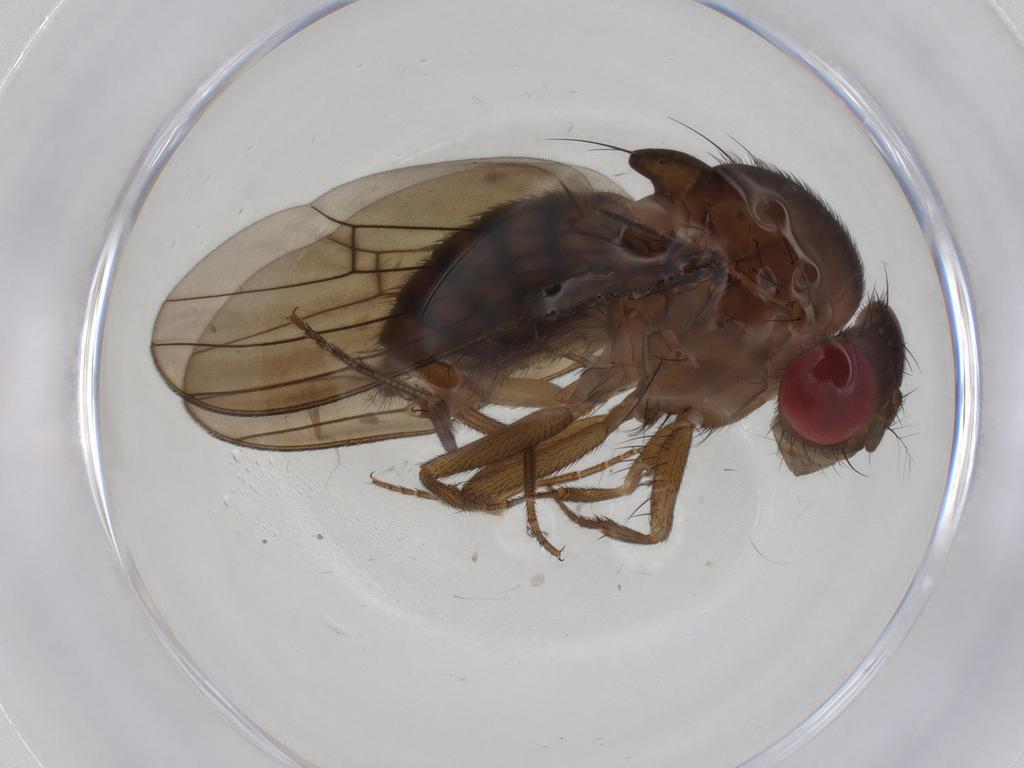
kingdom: Animalia
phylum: Arthropoda
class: Insecta
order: Diptera
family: Drosophilidae
